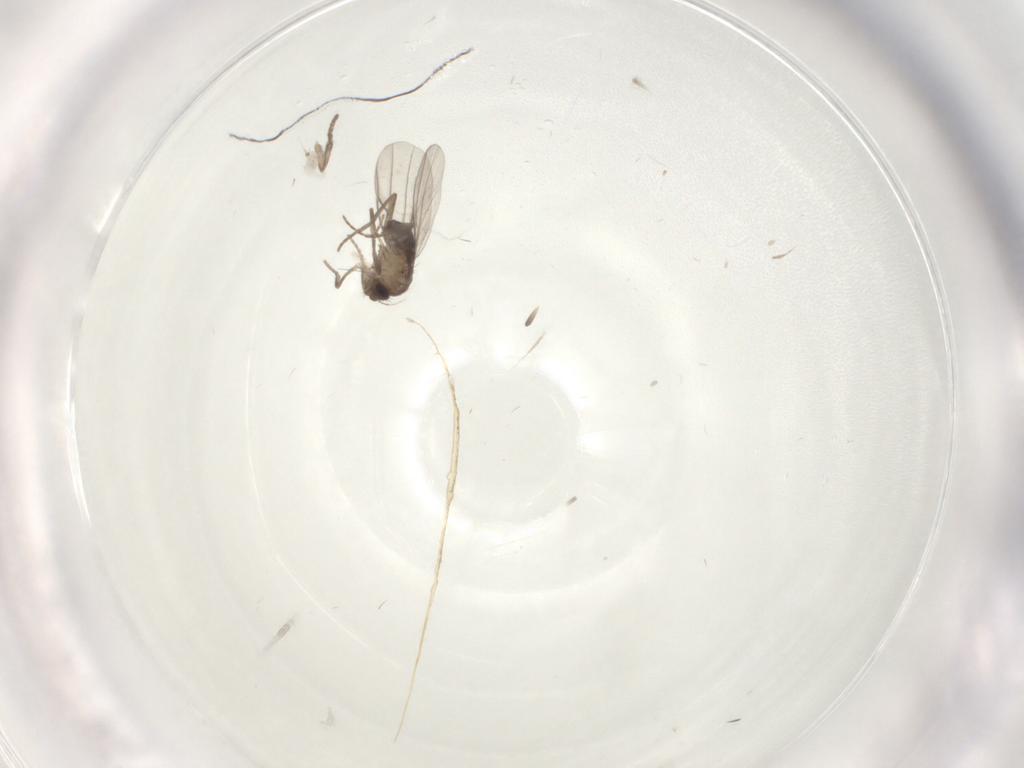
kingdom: Animalia
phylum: Arthropoda
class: Insecta
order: Diptera
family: Phoridae
